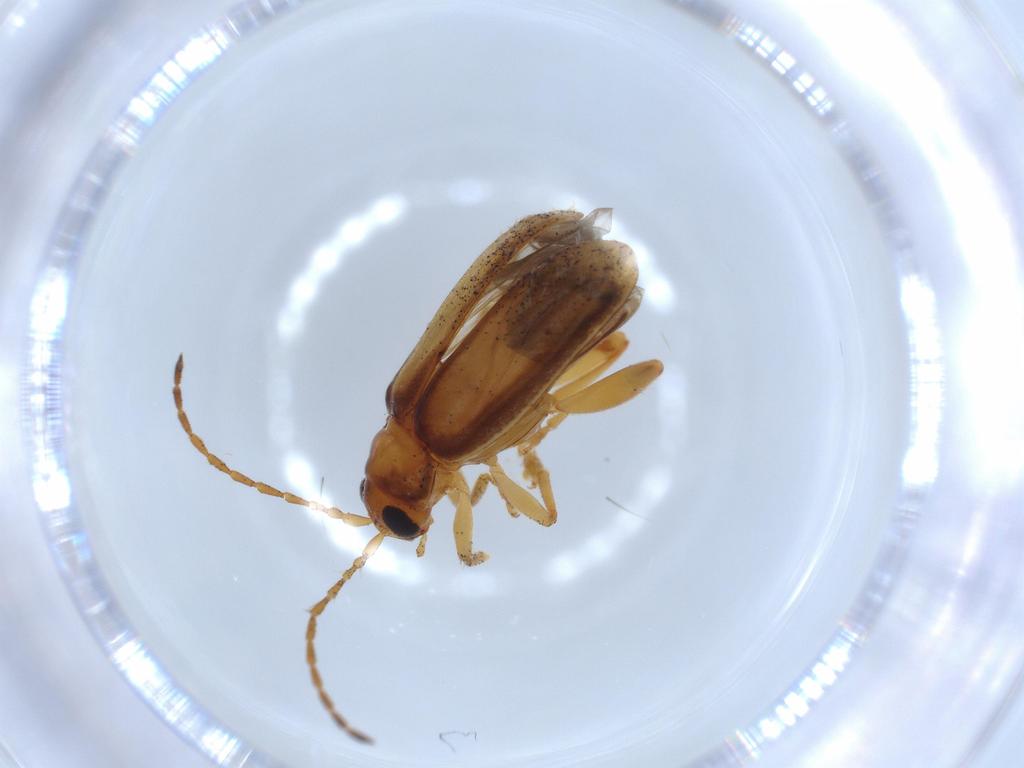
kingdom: Animalia
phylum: Arthropoda
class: Insecta
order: Coleoptera
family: Chrysomelidae
